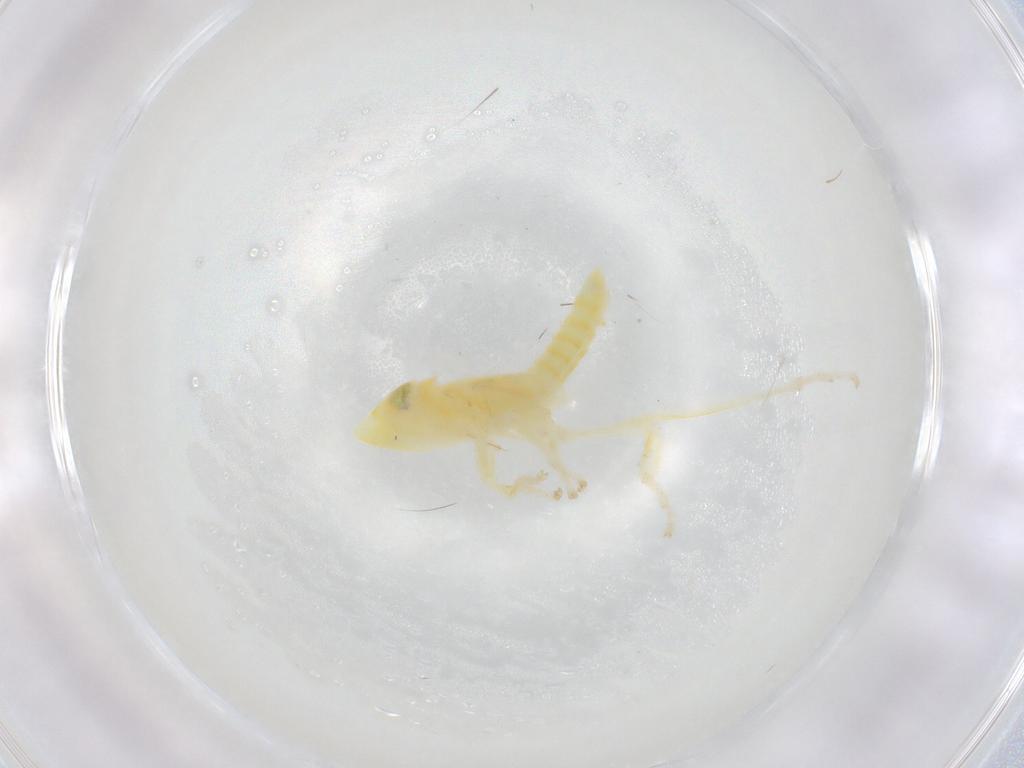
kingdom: Animalia
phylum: Arthropoda
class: Insecta
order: Hemiptera
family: Cicadellidae
